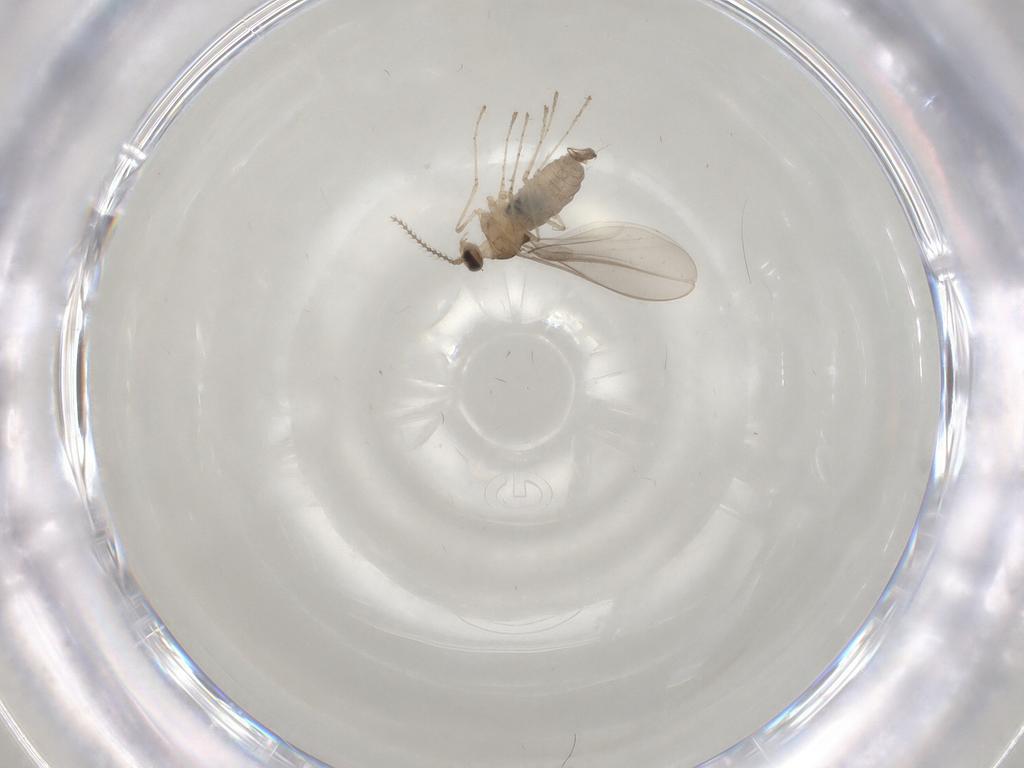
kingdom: Animalia
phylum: Arthropoda
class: Insecta
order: Diptera
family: Cecidomyiidae
